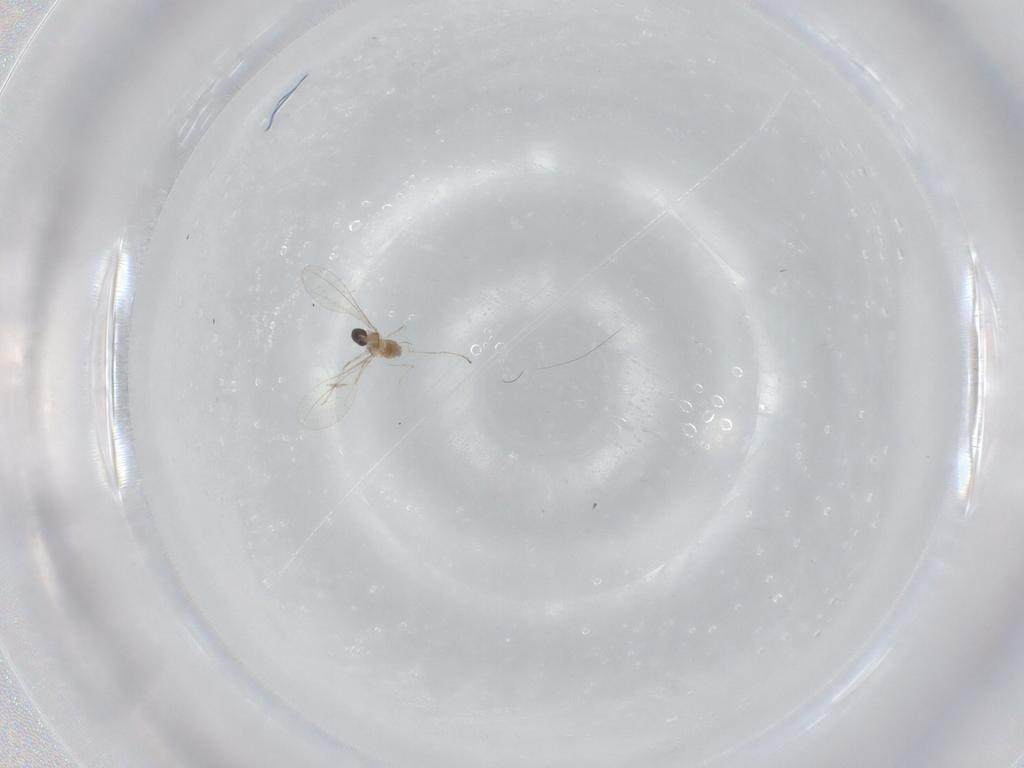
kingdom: Animalia
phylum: Arthropoda
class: Insecta
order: Diptera
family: Cecidomyiidae
